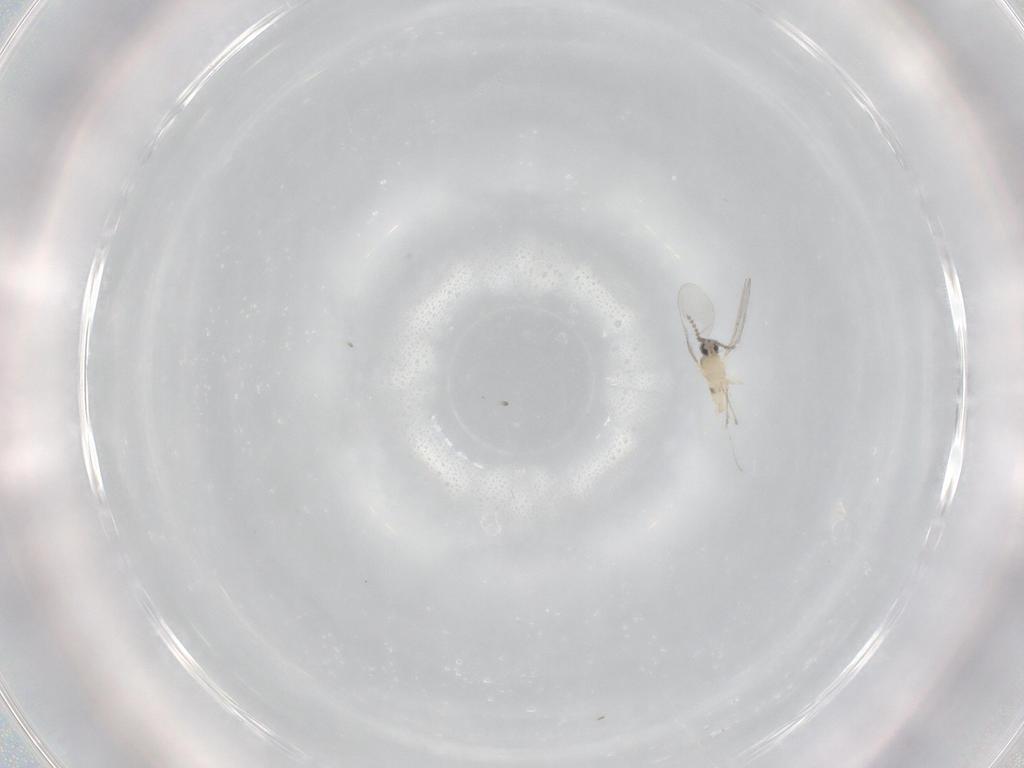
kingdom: Animalia
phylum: Arthropoda
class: Insecta
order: Diptera
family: Cecidomyiidae
